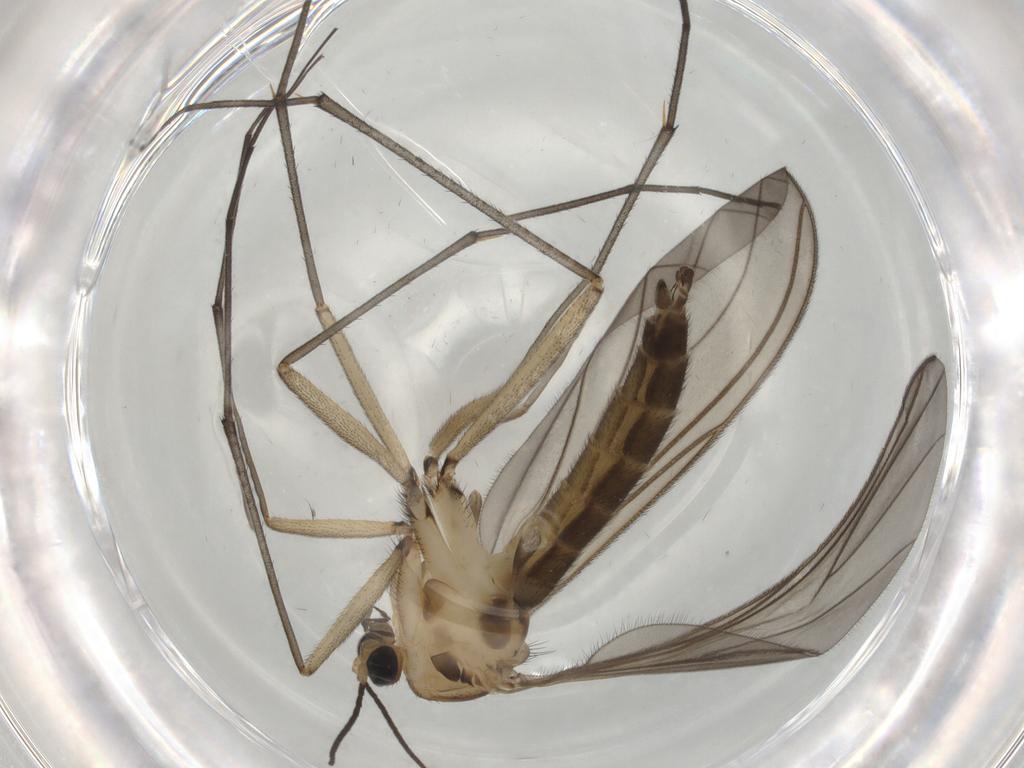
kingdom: Animalia
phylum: Arthropoda
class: Insecta
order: Diptera
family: Sciaridae
